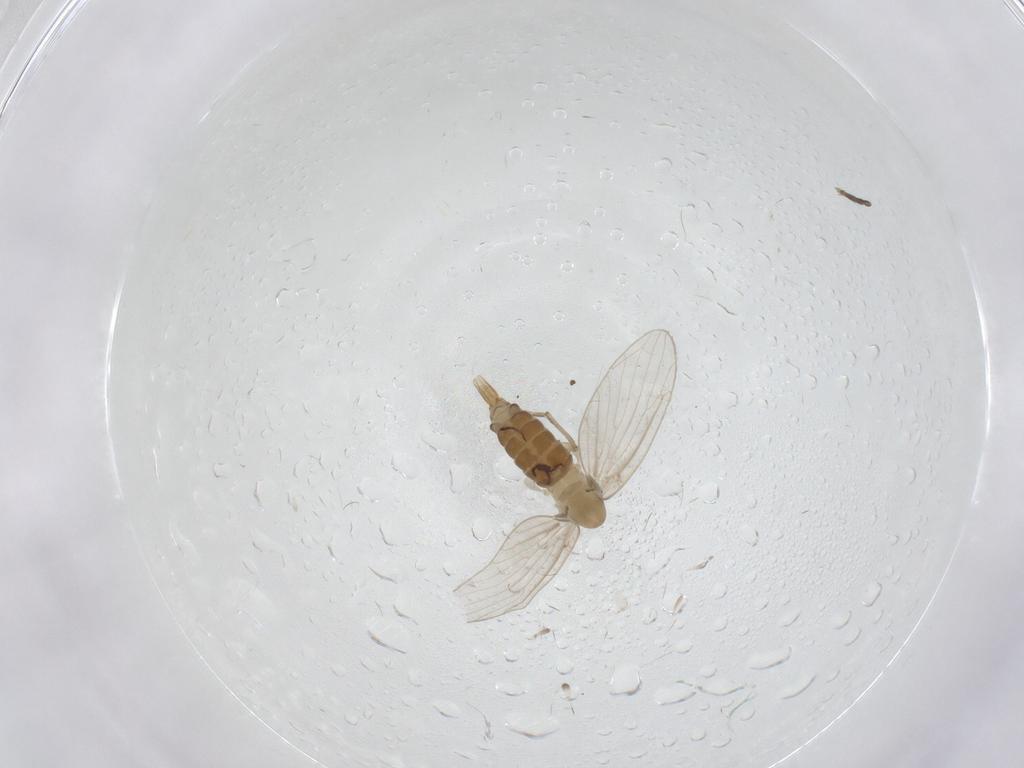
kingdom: Animalia
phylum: Arthropoda
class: Insecta
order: Diptera
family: Psychodidae
